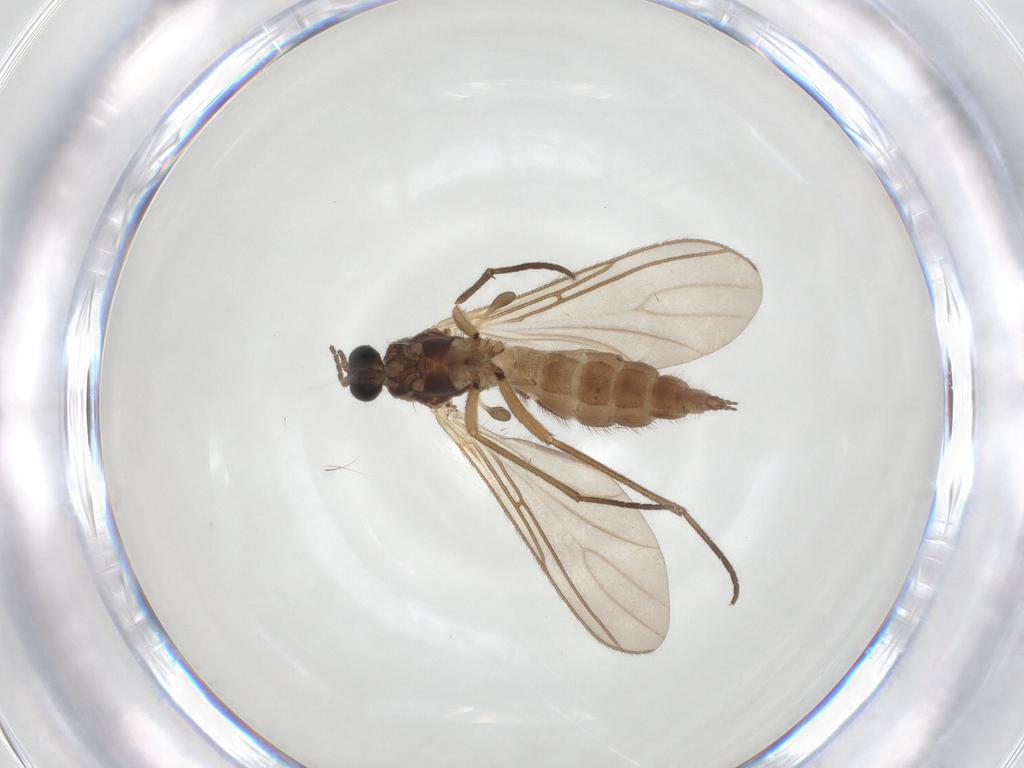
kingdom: Animalia
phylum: Arthropoda
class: Insecta
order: Diptera
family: Sciaridae
